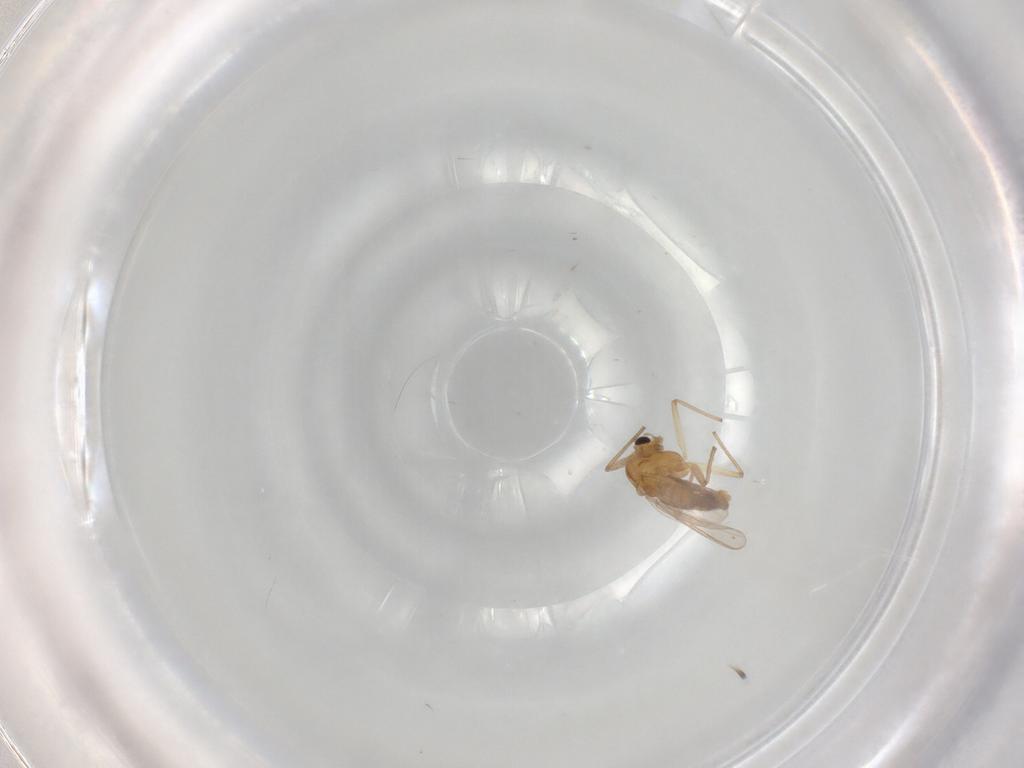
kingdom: Animalia
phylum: Arthropoda
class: Insecta
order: Diptera
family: Chironomidae
